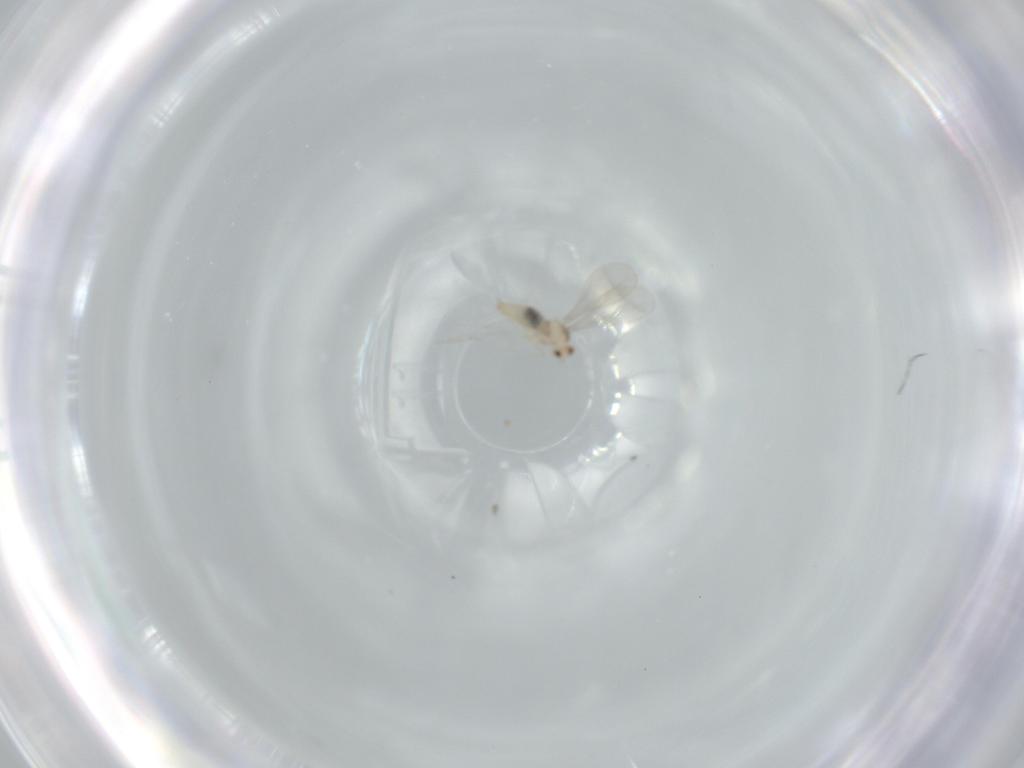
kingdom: Animalia
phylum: Arthropoda
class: Insecta
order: Diptera
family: Cecidomyiidae
